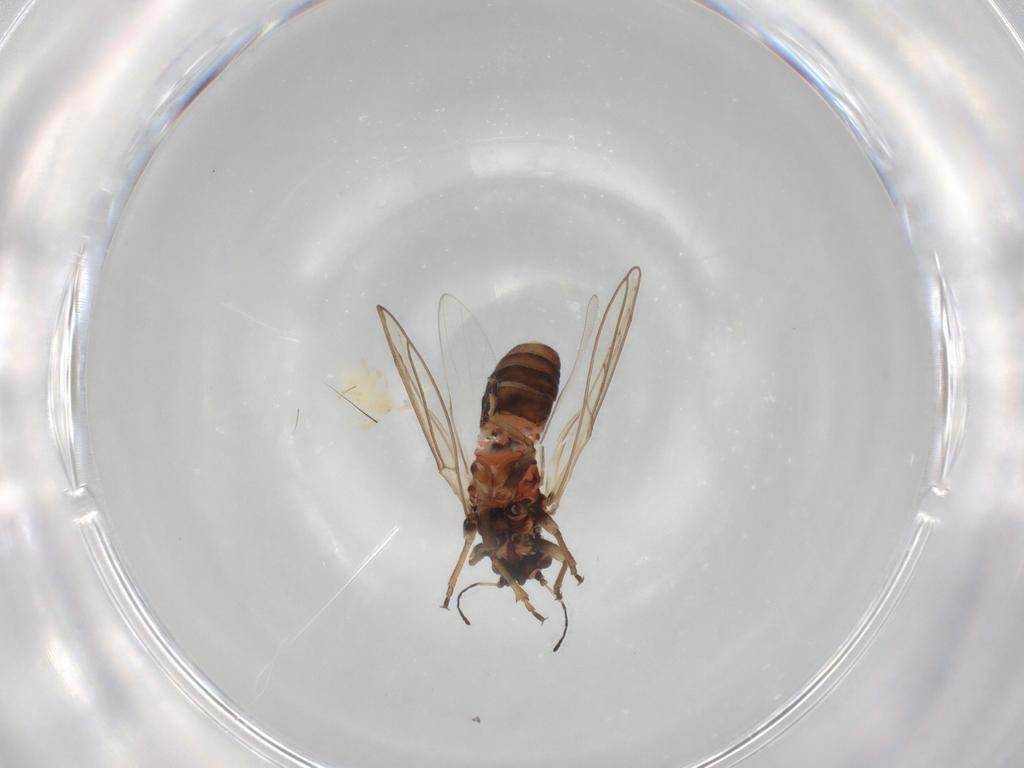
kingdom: Animalia
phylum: Arthropoda
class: Arachnida
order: Trombidiformes
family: Trombidiidae
